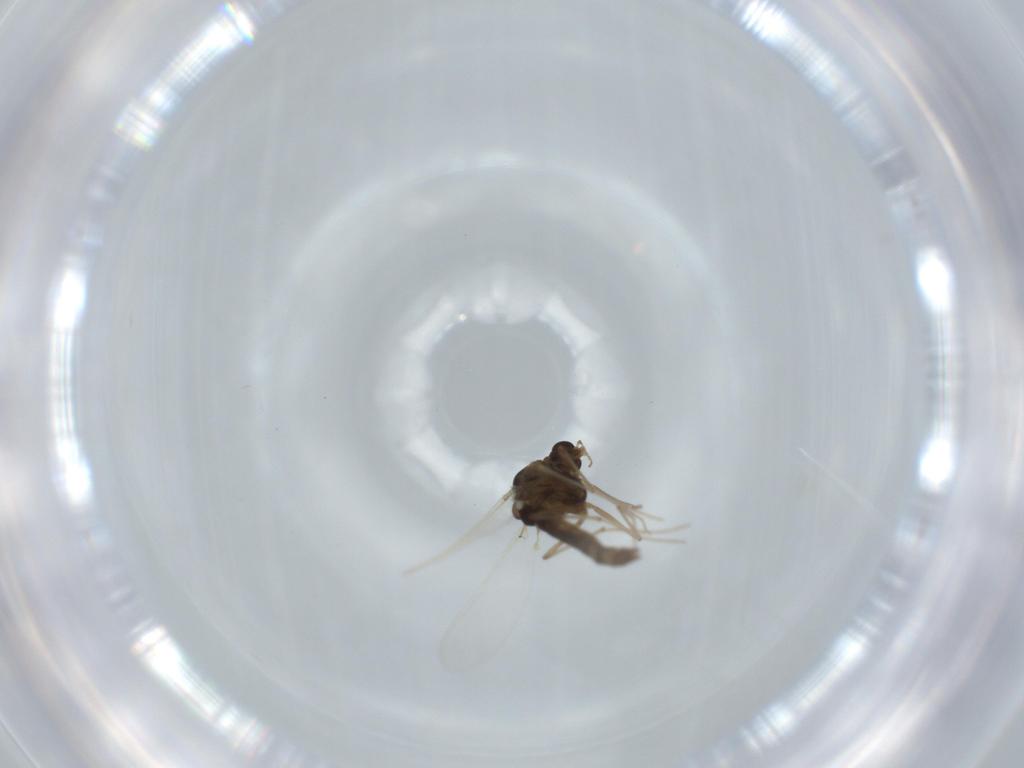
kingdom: Animalia
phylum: Arthropoda
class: Insecta
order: Diptera
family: Chironomidae
